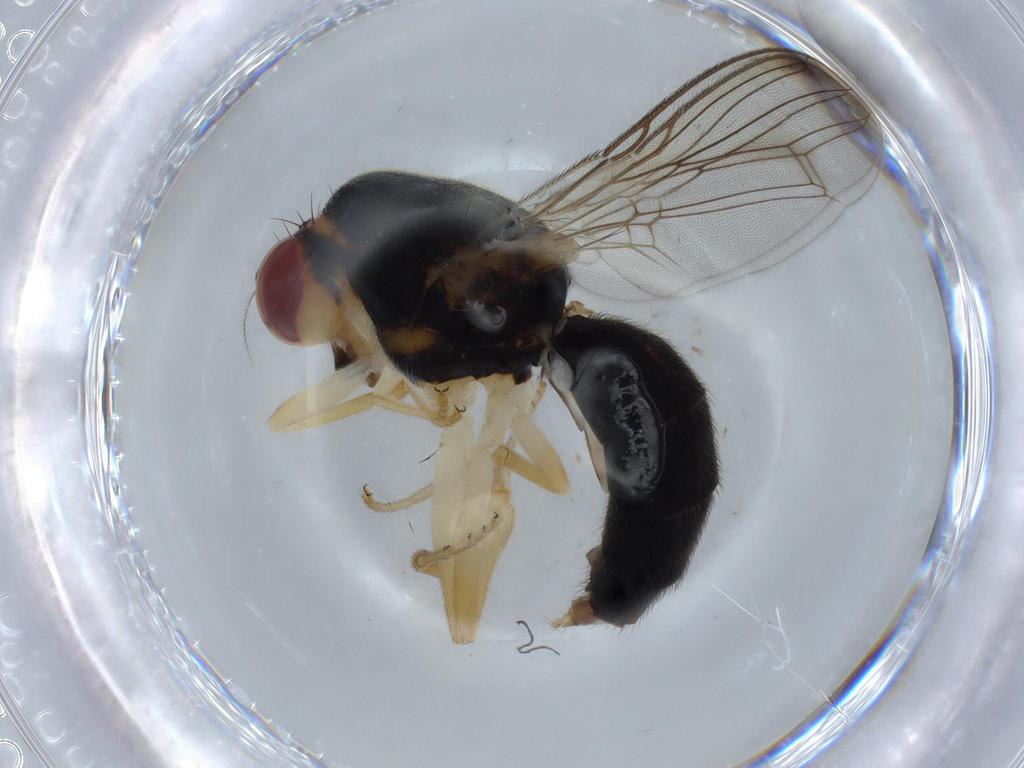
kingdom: Animalia
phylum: Arthropoda
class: Insecta
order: Diptera
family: Psilidae
